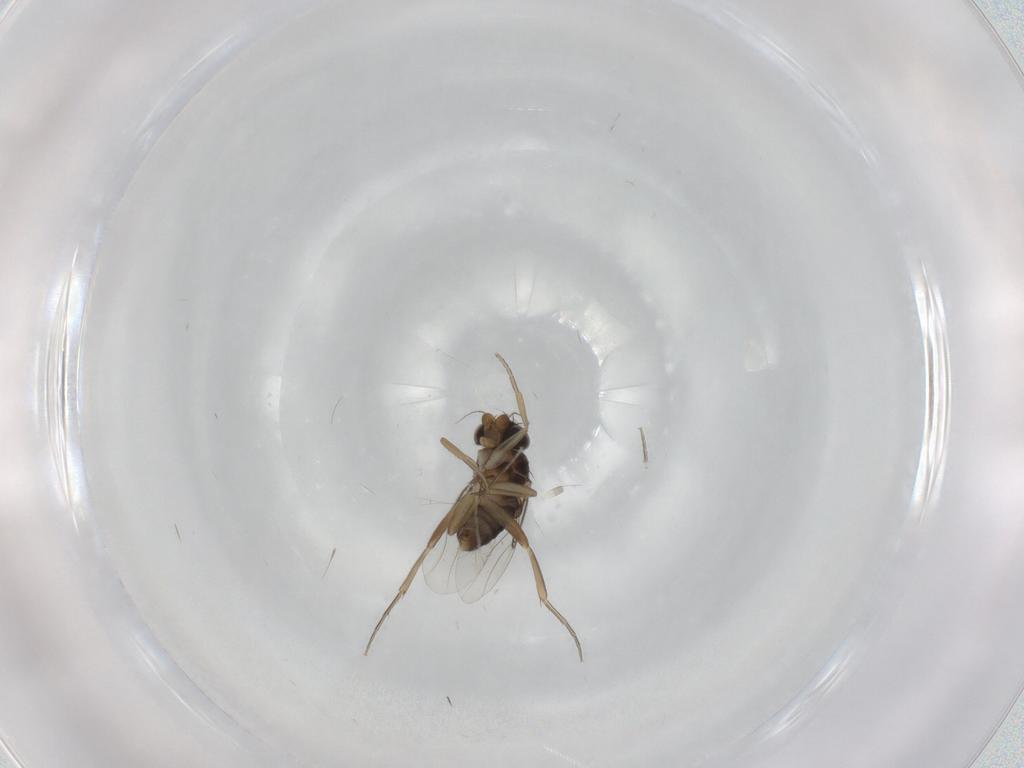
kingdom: Animalia
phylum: Arthropoda
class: Insecta
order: Diptera
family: Phoridae
